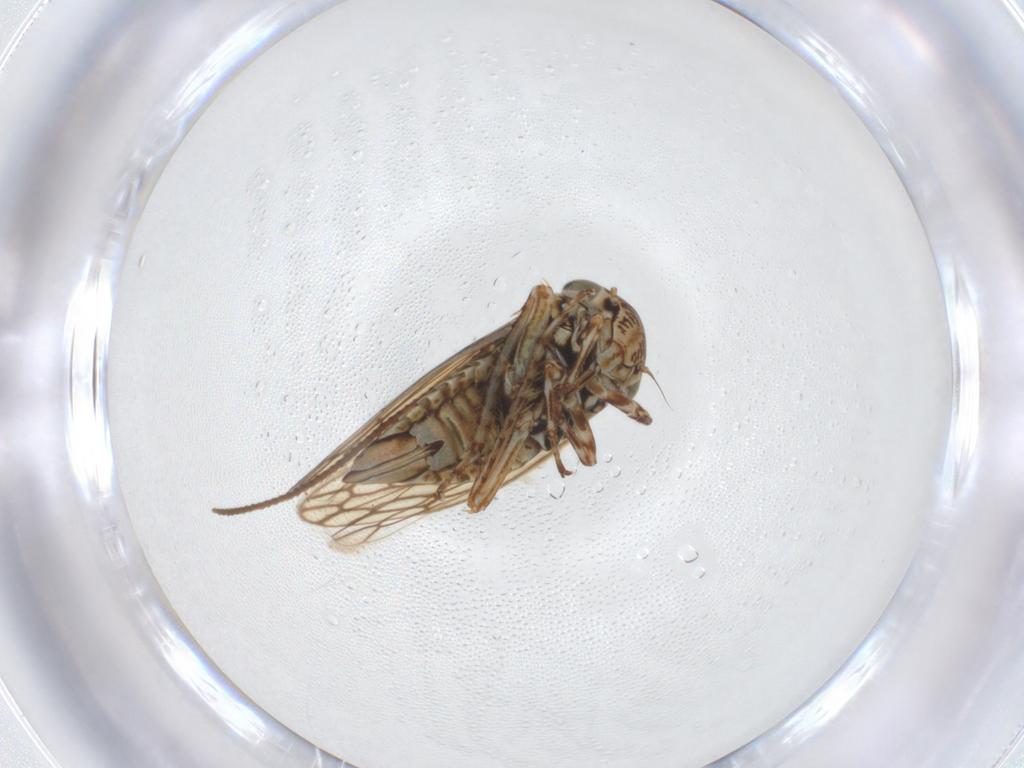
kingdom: Animalia
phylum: Arthropoda
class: Insecta
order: Hemiptera
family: Cicadellidae
